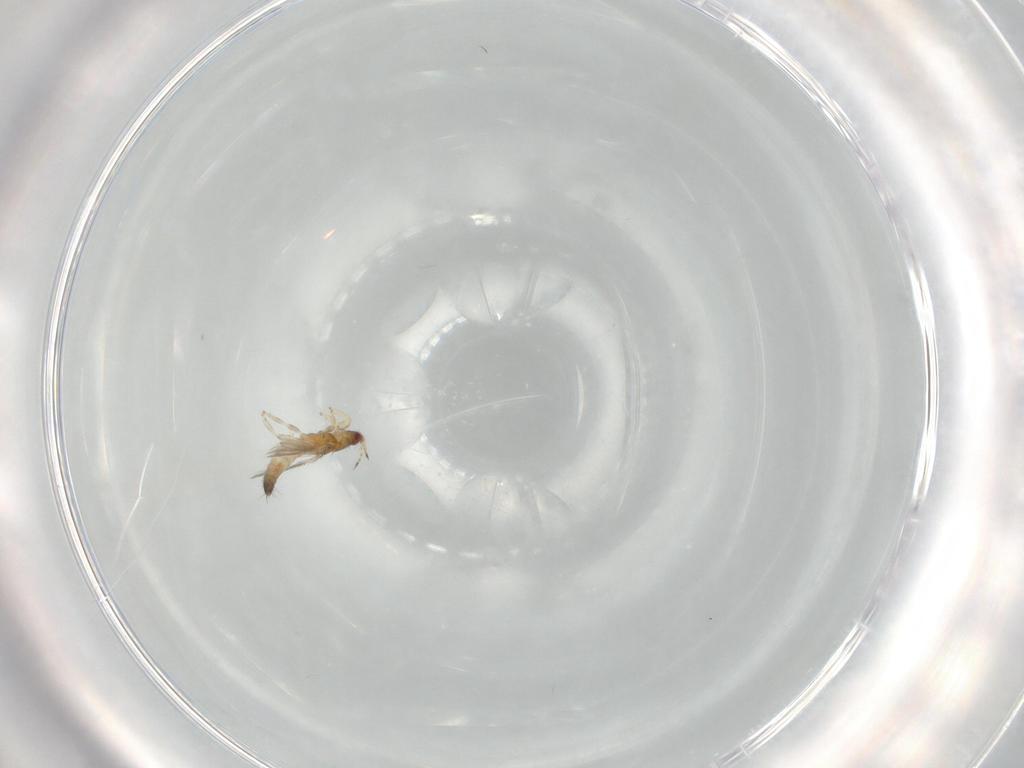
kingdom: Animalia
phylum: Arthropoda
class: Insecta
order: Thysanoptera
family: Thripidae
